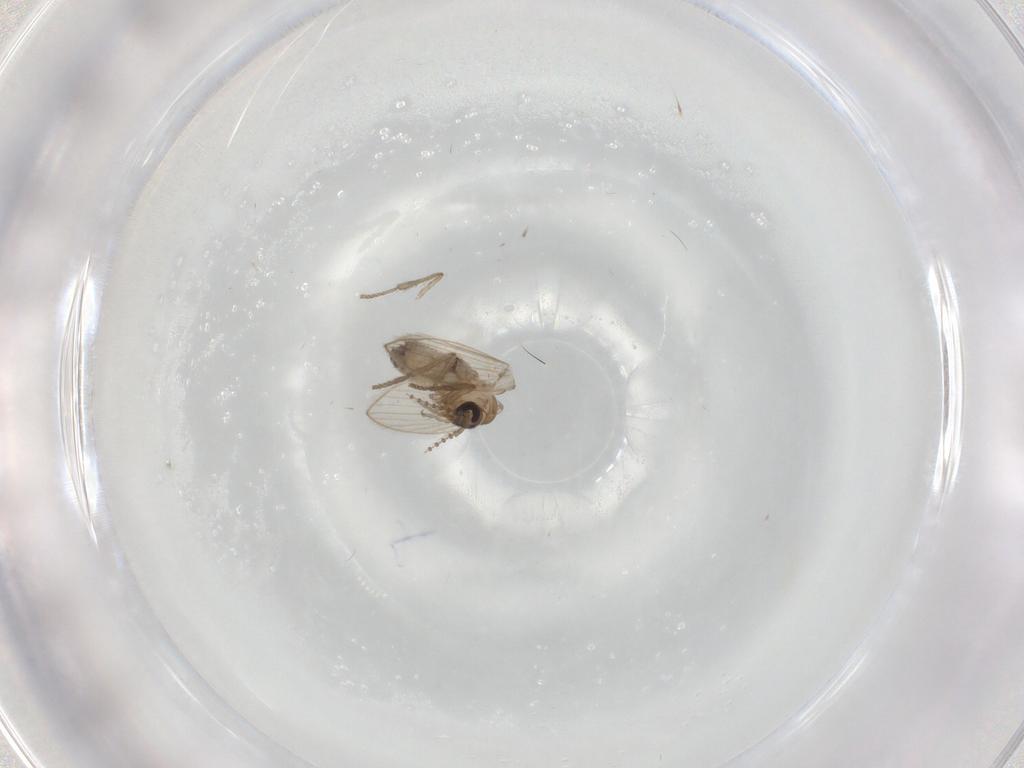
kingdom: Animalia
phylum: Arthropoda
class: Insecta
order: Diptera
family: Psychodidae
